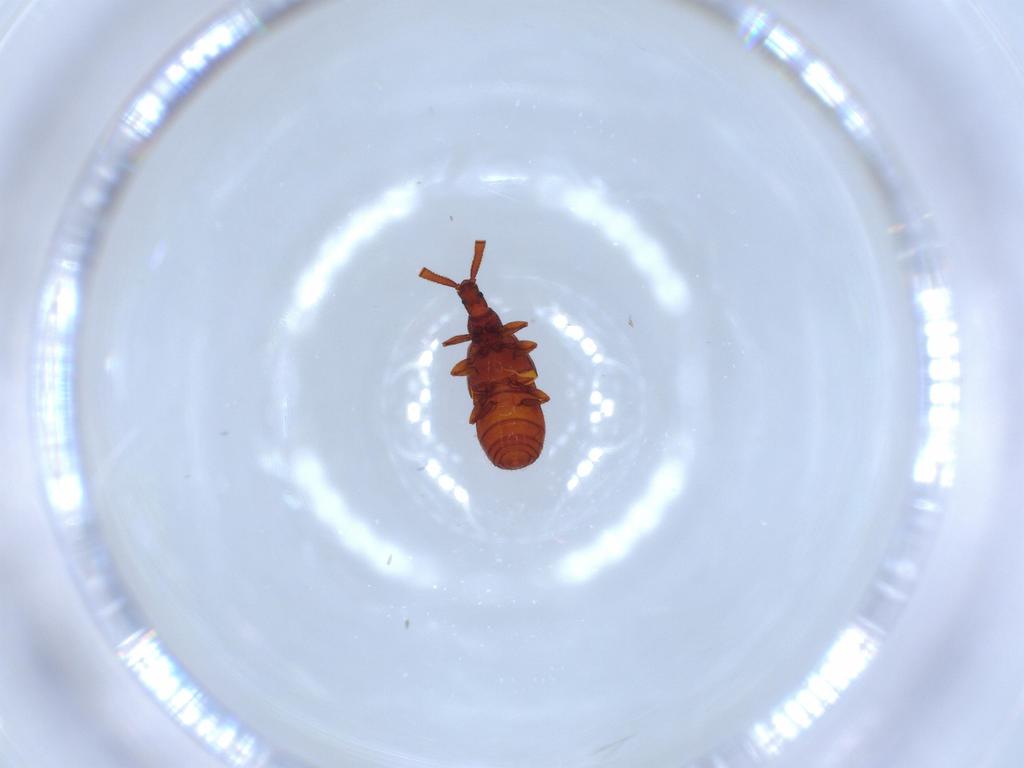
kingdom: Animalia
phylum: Arthropoda
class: Insecta
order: Coleoptera
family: Staphylinidae
